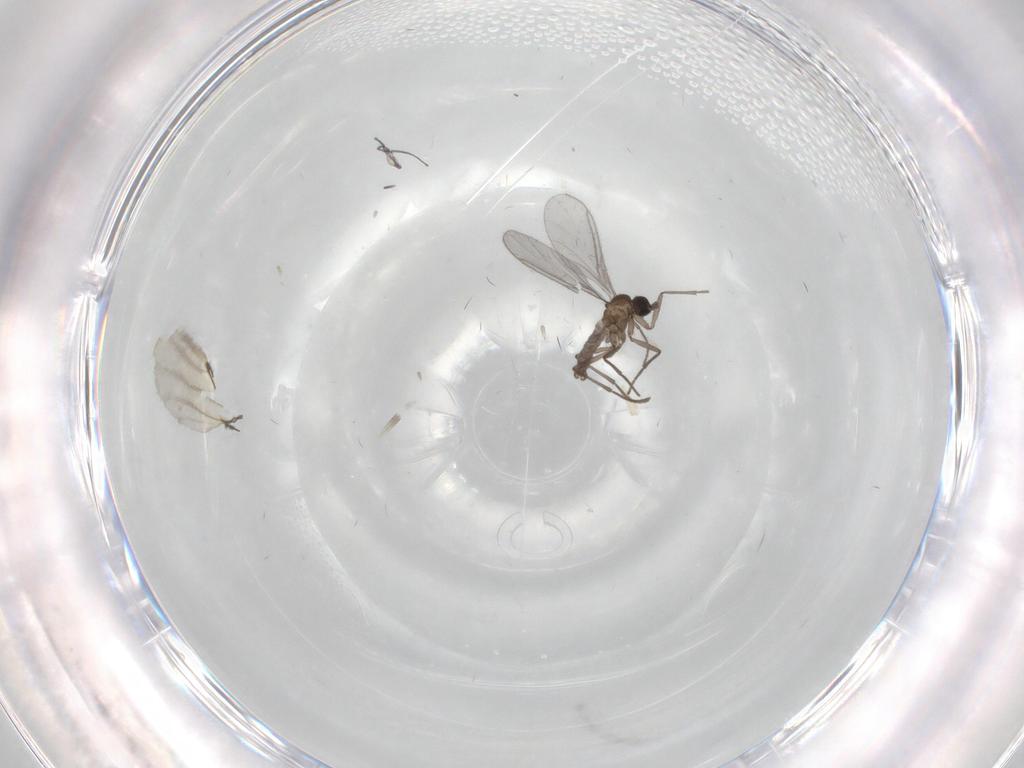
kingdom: Animalia
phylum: Arthropoda
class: Insecta
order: Diptera
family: Sciaridae
